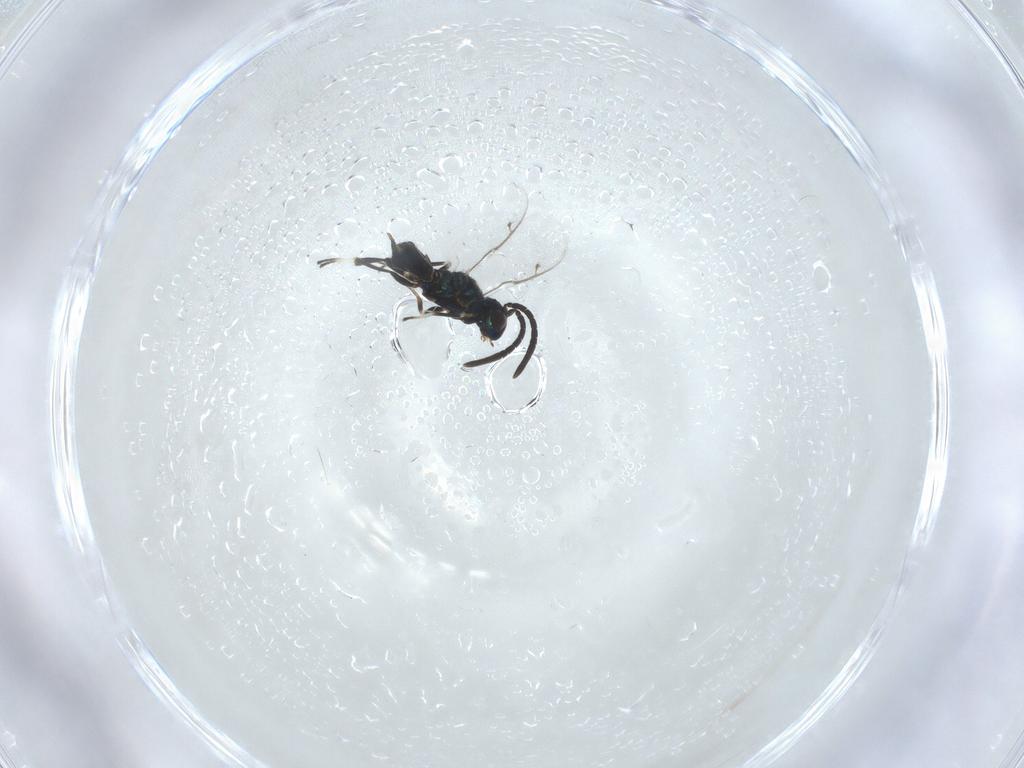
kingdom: Animalia
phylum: Arthropoda
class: Insecta
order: Hymenoptera
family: Eupelmidae
